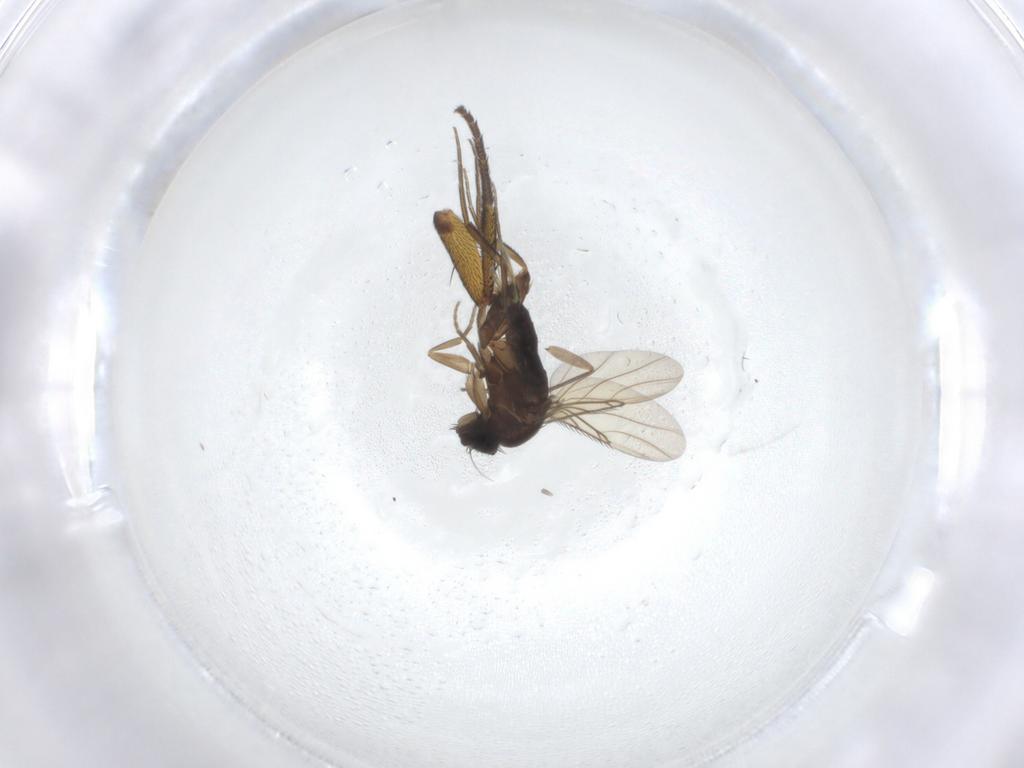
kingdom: Animalia
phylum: Arthropoda
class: Insecta
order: Diptera
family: Phoridae
